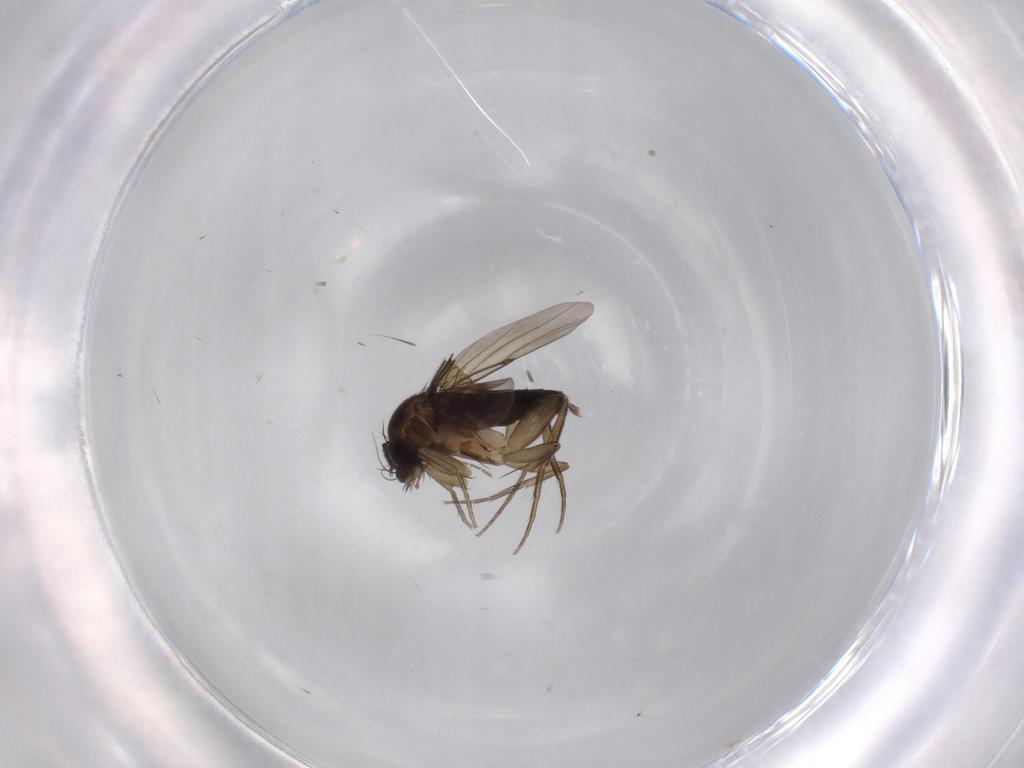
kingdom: Animalia
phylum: Arthropoda
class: Insecta
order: Diptera
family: Phoridae
